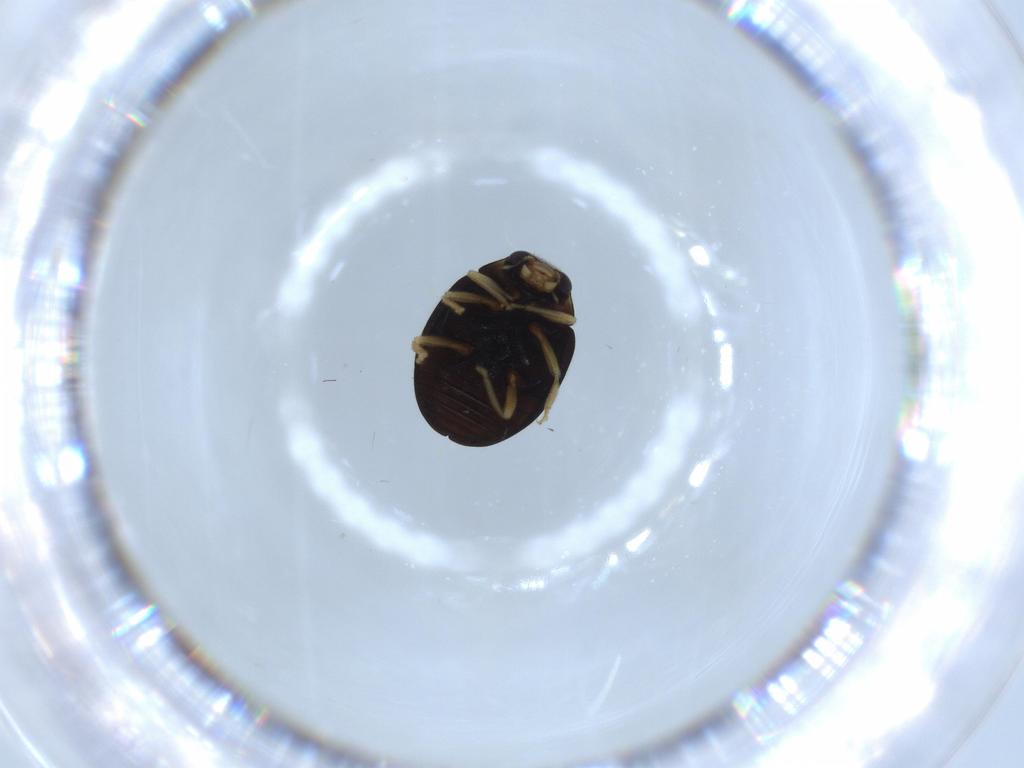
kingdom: Animalia
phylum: Arthropoda
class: Insecta
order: Coleoptera
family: Coccinellidae
